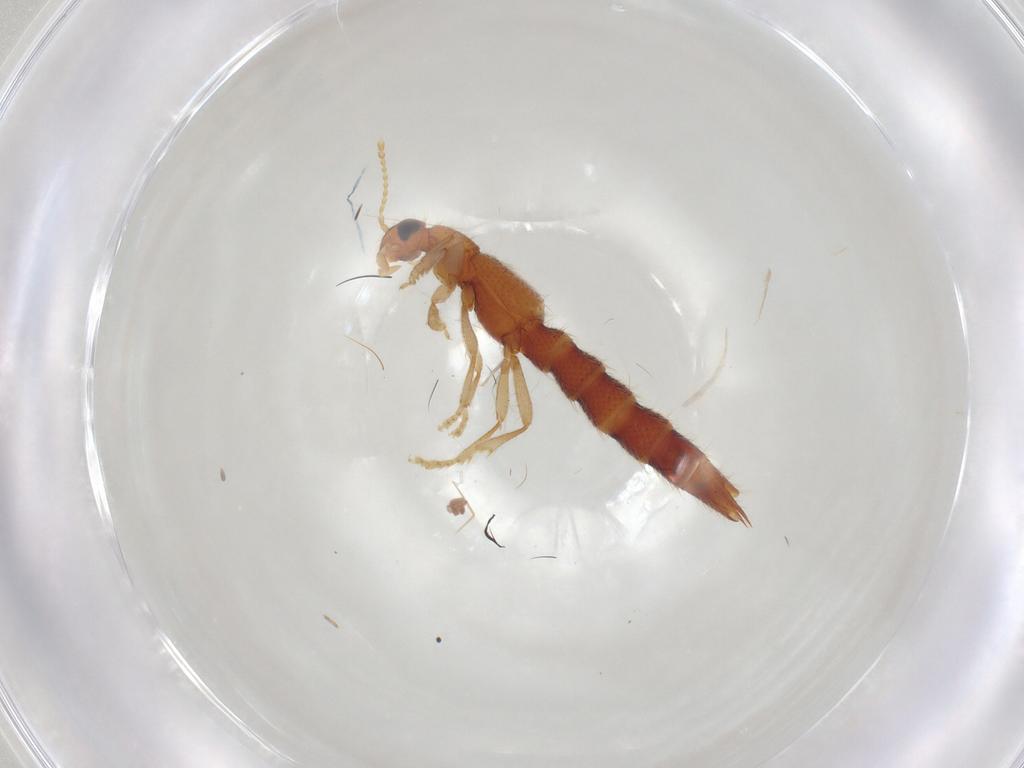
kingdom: Animalia
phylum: Arthropoda
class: Insecta
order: Coleoptera
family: Staphylinidae
